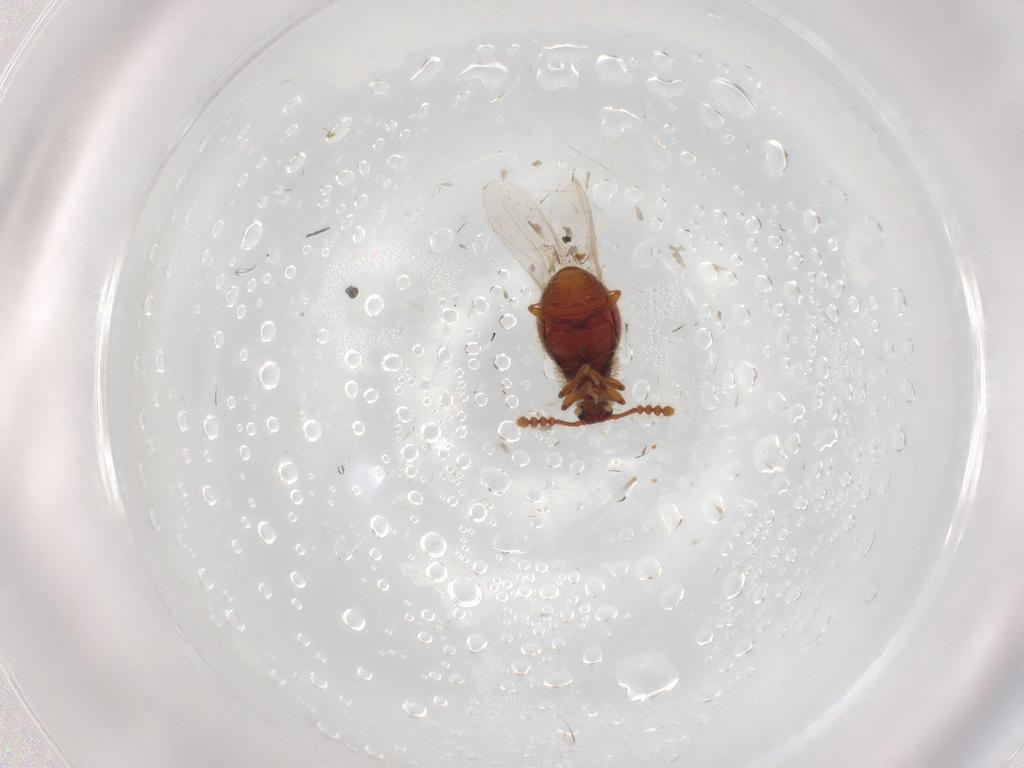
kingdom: Animalia
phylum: Arthropoda
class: Insecta
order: Coleoptera
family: Staphylinidae
